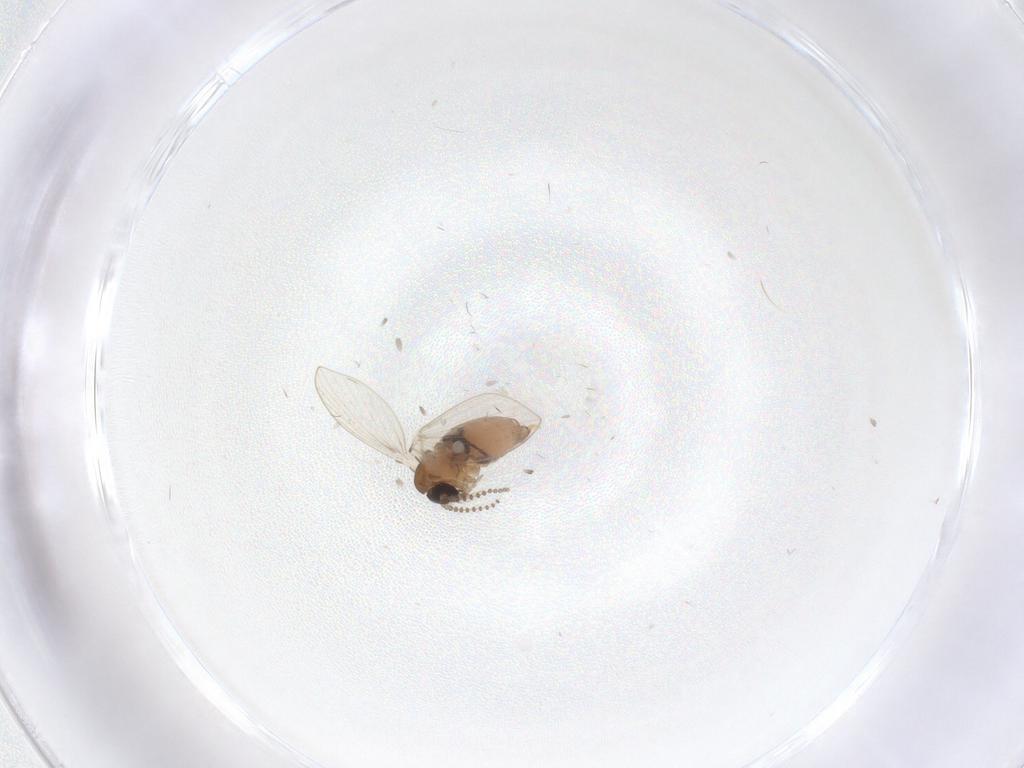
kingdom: Animalia
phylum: Arthropoda
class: Insecta
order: Diptera
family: Psychodidae
